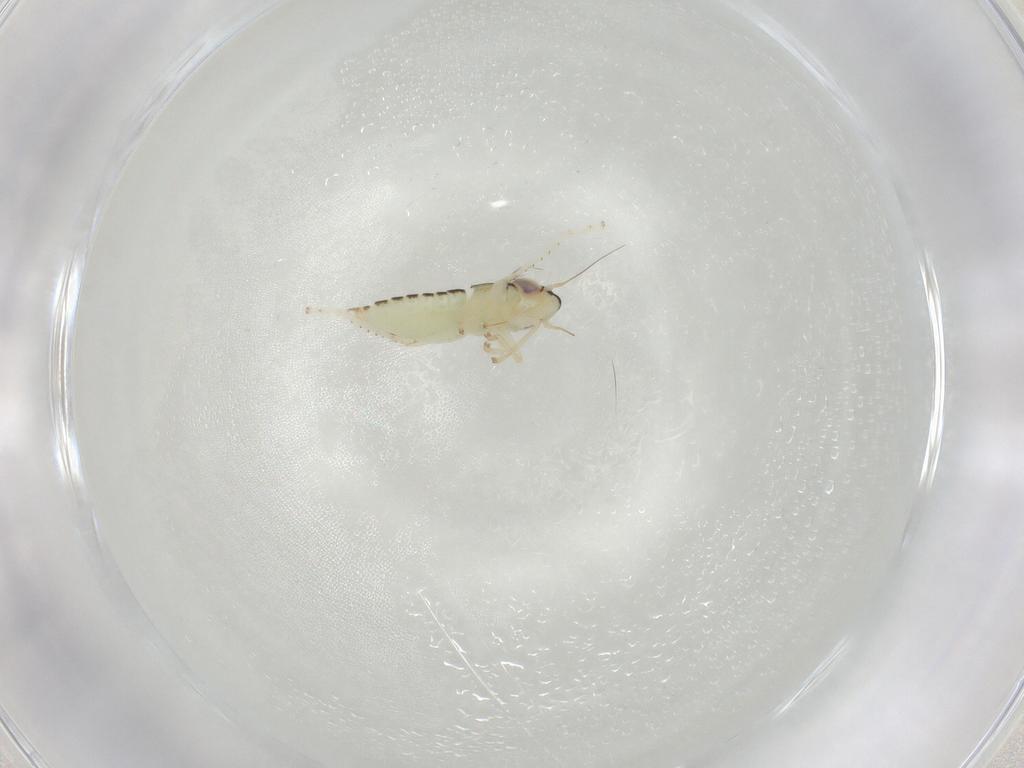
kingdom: Animalia
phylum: Arthropoda
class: Insecta
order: Hemiptera
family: Cicadellidae
